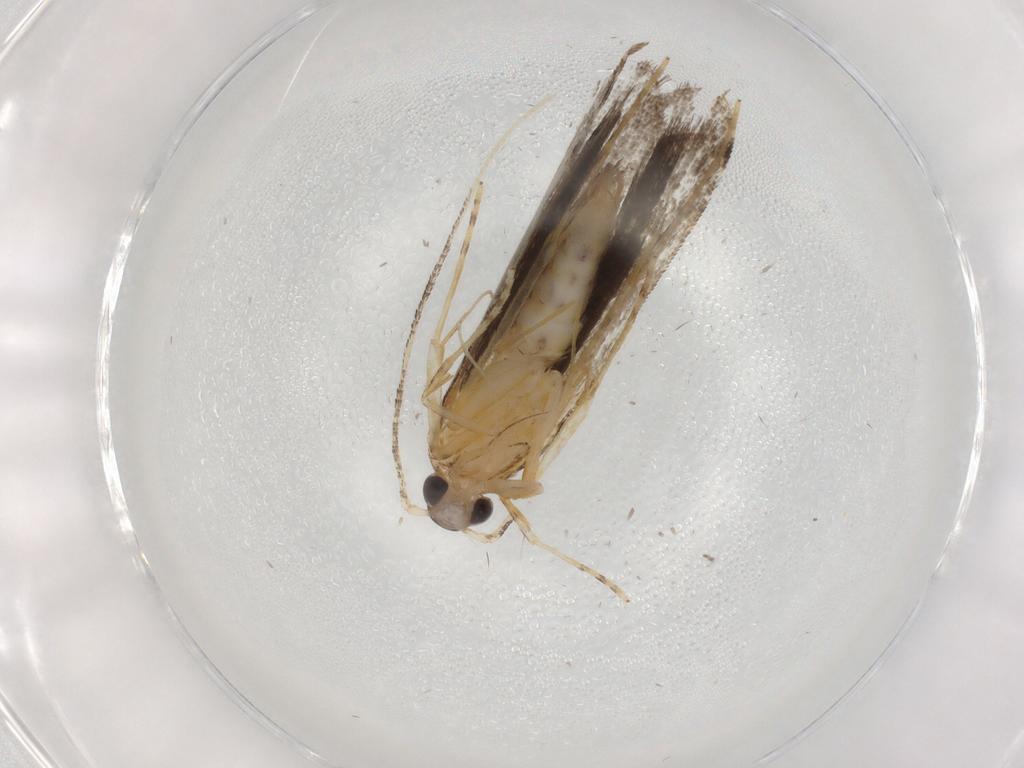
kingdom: Animalia
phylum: Arthropoda
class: Insecta
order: Lepidoptera
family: Cosmopterigidae
